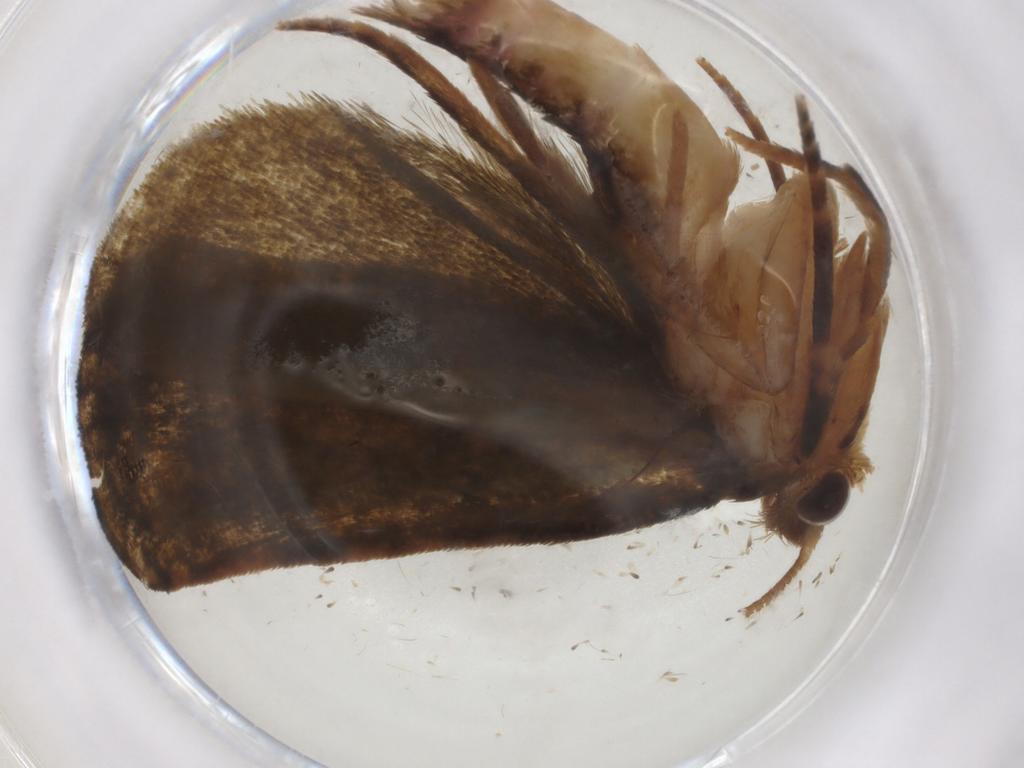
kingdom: Animalia
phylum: Arthropoda
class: Insecta
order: Lepidoptera
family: Geometridae
